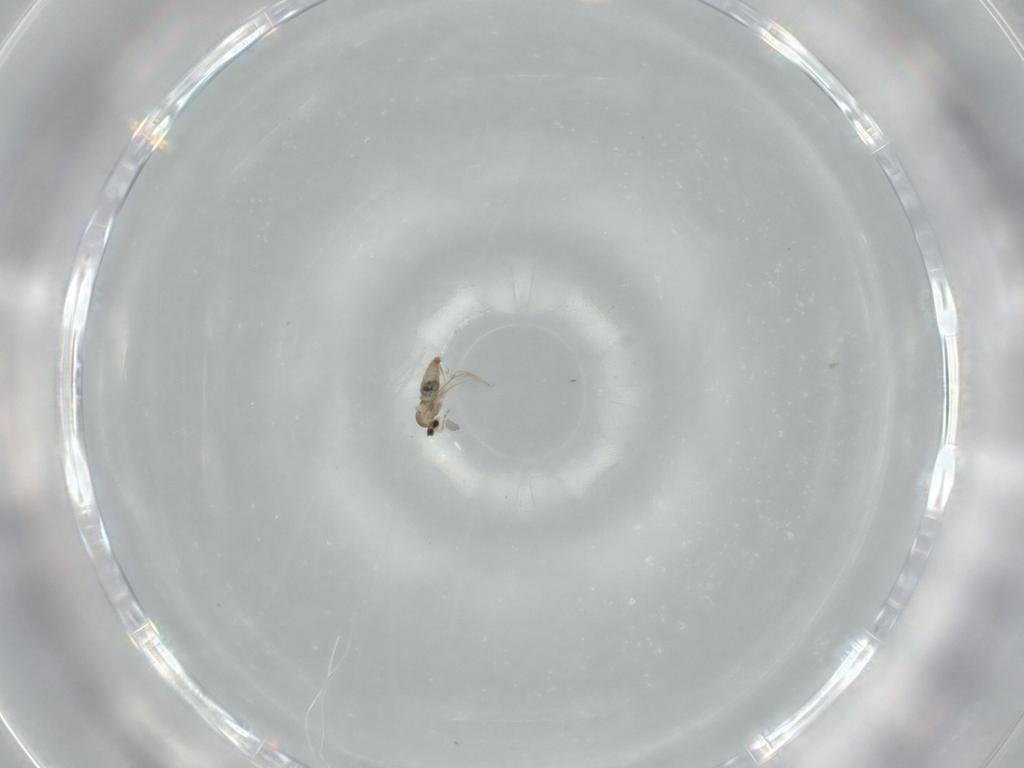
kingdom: Animalia
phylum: Arthropoda
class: Insecta
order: Diptera
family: Cecidomyiidae
